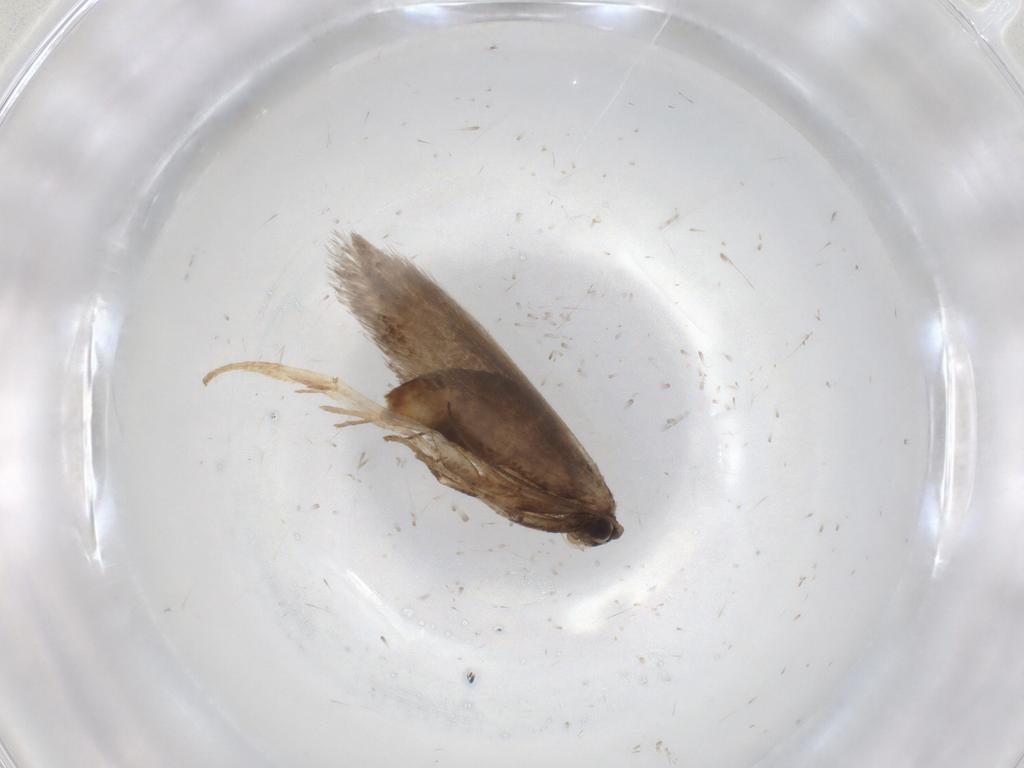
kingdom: Animalia
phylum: Arthropoda
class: Insecta
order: Lepidoptera
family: Nepticulidae
